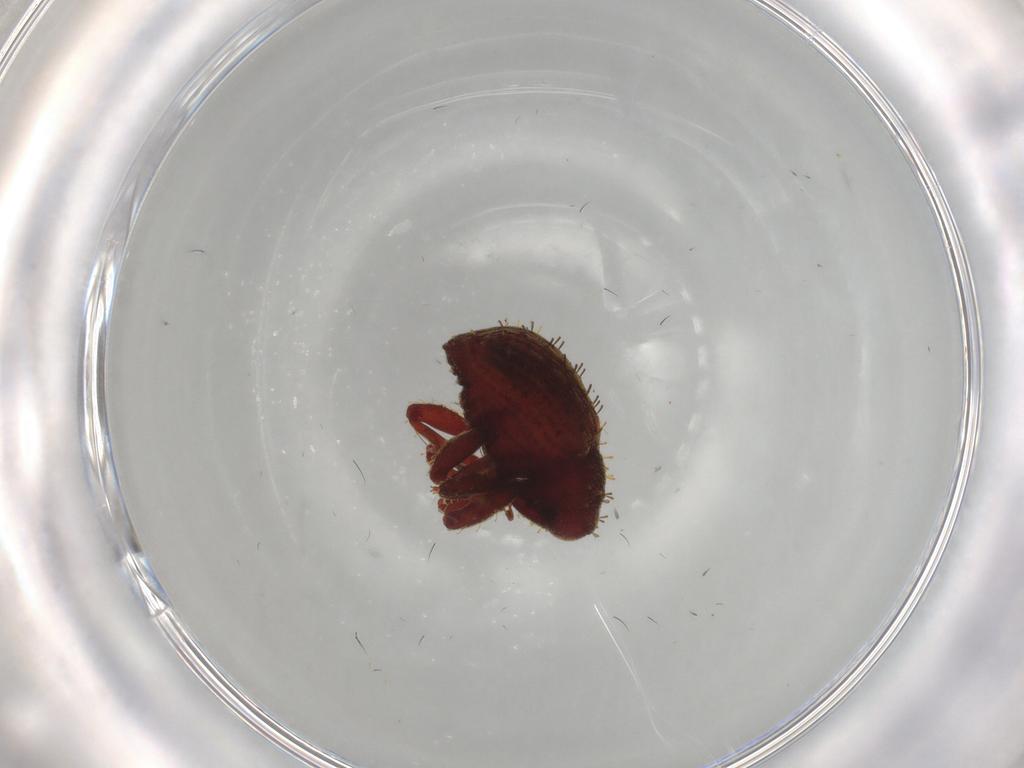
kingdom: Animalia
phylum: Arthropoda
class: Insecta
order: Coleoptera
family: Curculionidae
